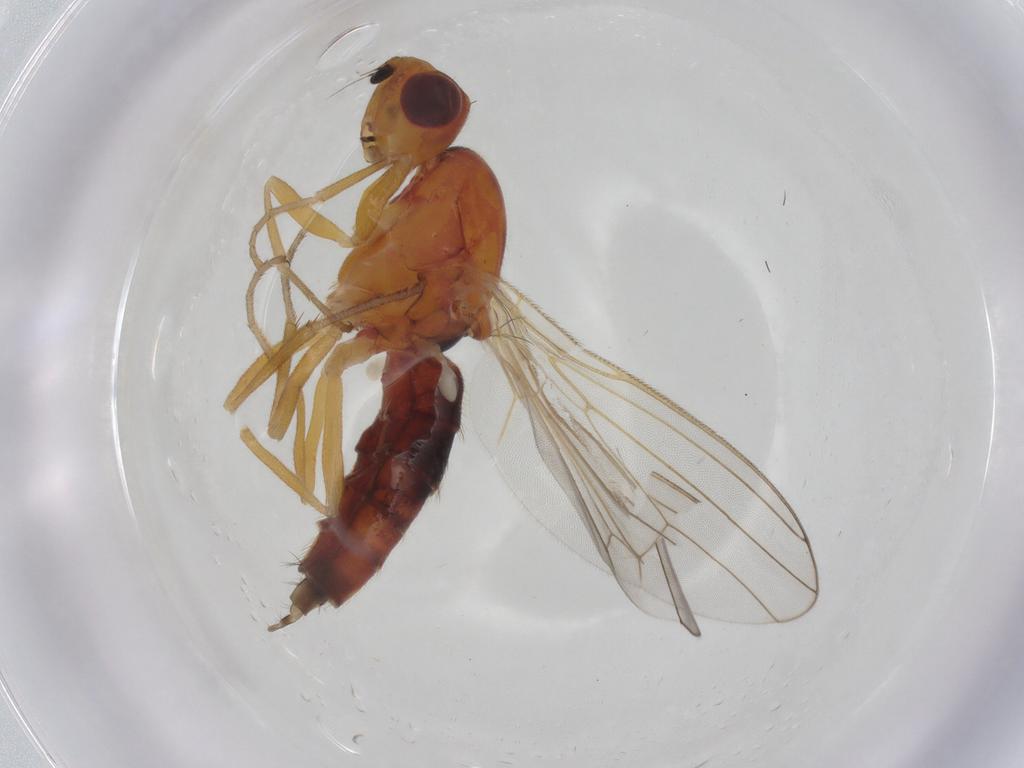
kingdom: Animalia
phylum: Arthropoda
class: Insecta
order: Diptera
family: Psilidae
